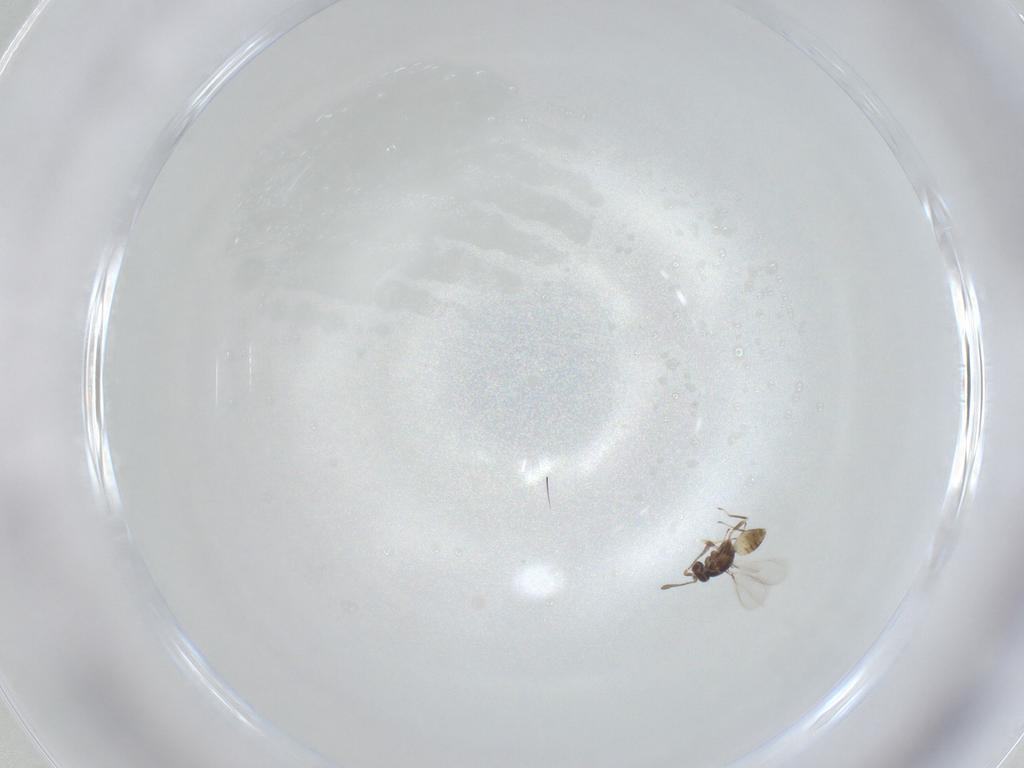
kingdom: Animalia
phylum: Arthropoda
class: Insecta
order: Hymenoptera
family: Mymaridae
